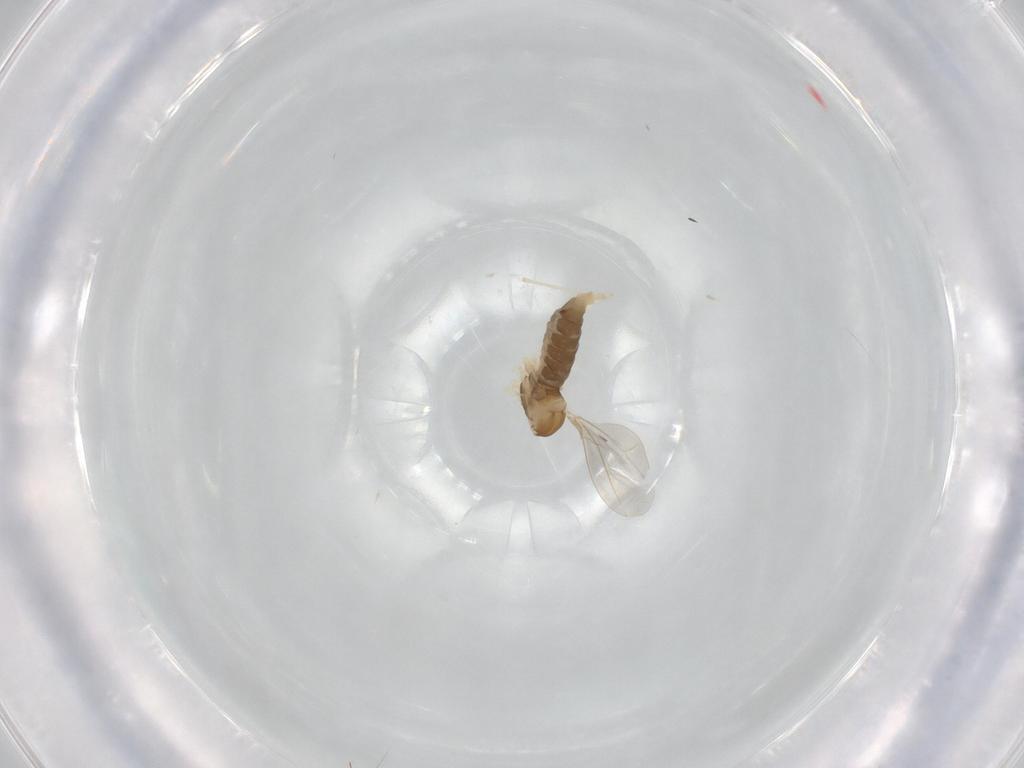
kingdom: Animalia
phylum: Arthropoda
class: Insecta
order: Diptera
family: Cecidomyiidae
